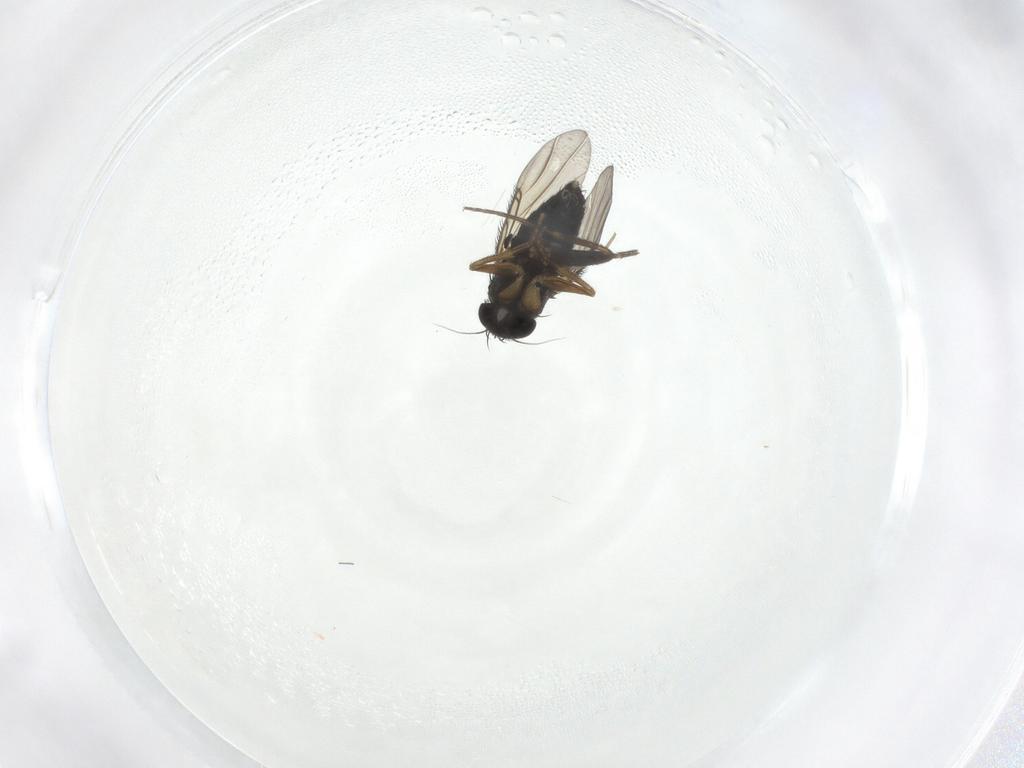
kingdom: Animalia
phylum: Arthropoda
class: Insecta
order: Diptera
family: Phoridae
